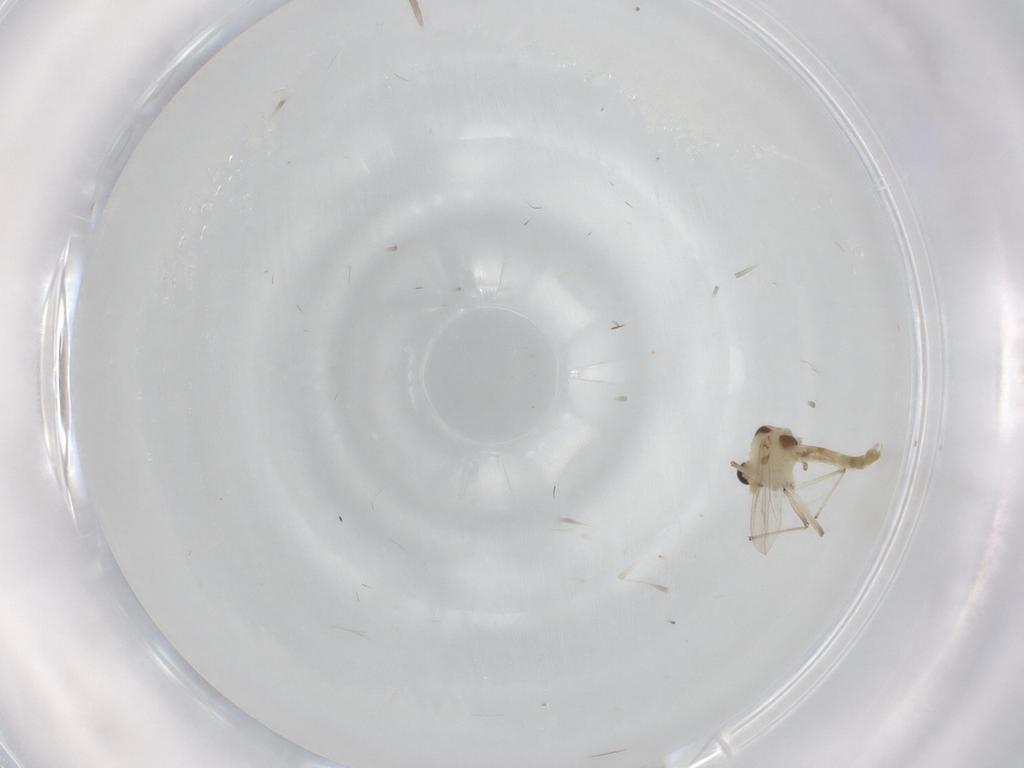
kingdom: Animalia
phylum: Arthropoda
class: Insecta
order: Diptera
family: Chironomidae
